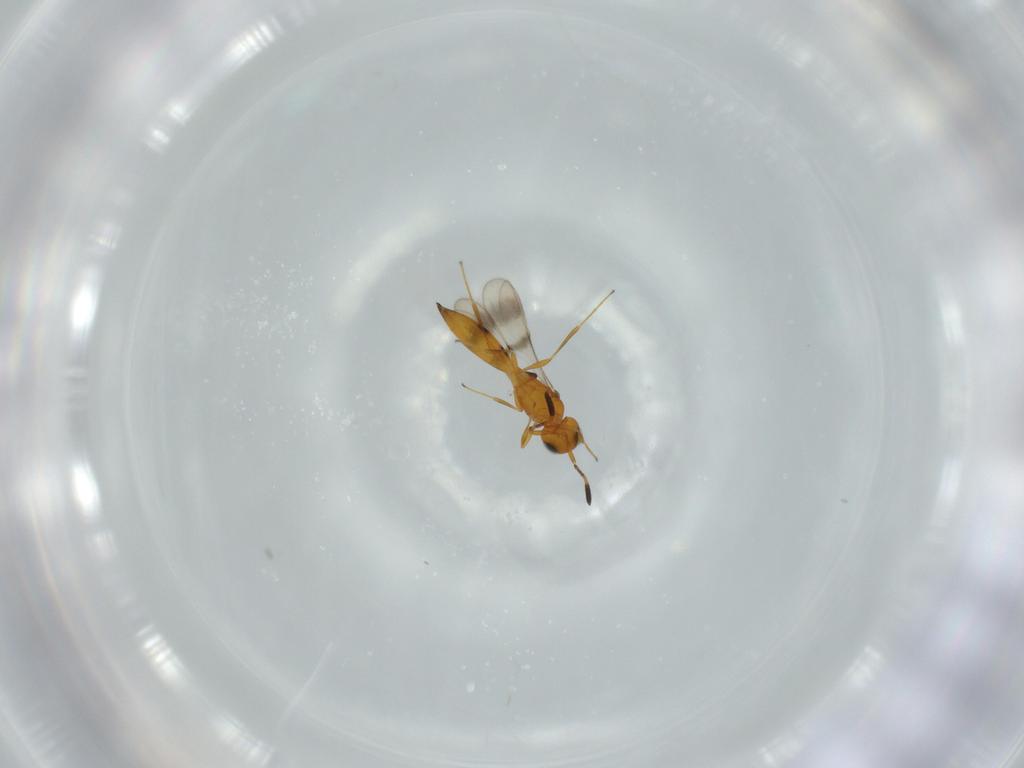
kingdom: Animalia
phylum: Arthropoda
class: Insecta
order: Hymenoptera
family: Scelionidae
